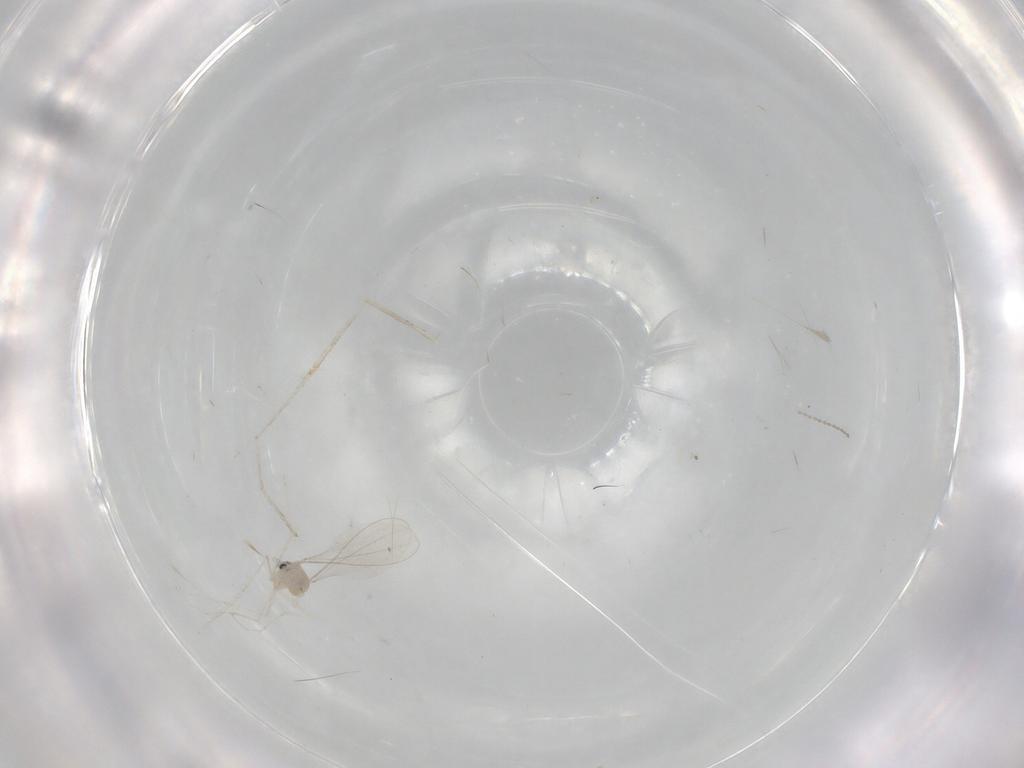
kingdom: Animalia
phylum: Arthropoda
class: Insecta
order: Diptera
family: Cecidomyiidae
